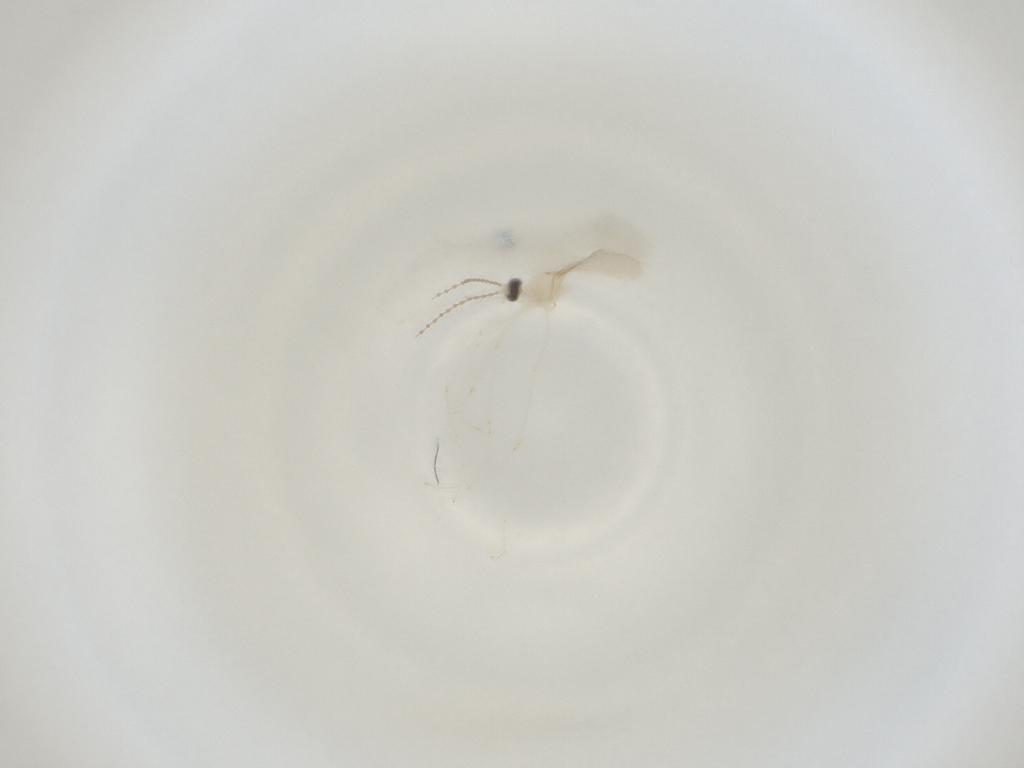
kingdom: Animalia
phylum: Arthropoda
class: Insecta
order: Diptera
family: Cecidomyiidae
